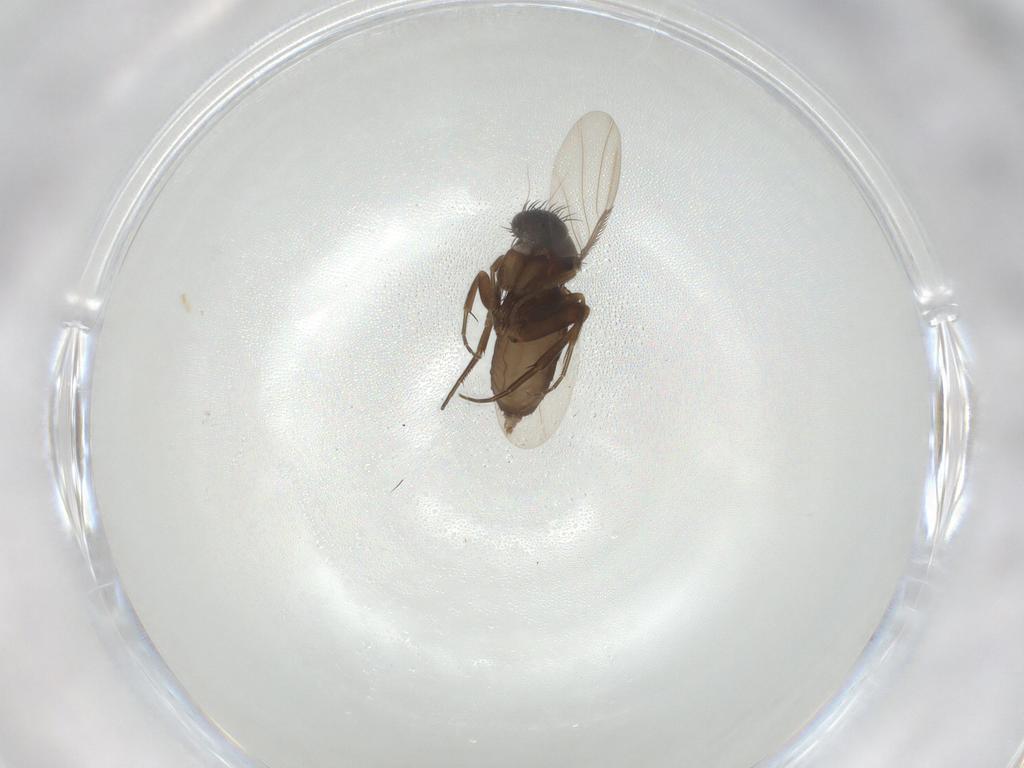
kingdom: Animalia
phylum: Arthropoda
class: Insecta
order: Diptera
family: Phoridae
